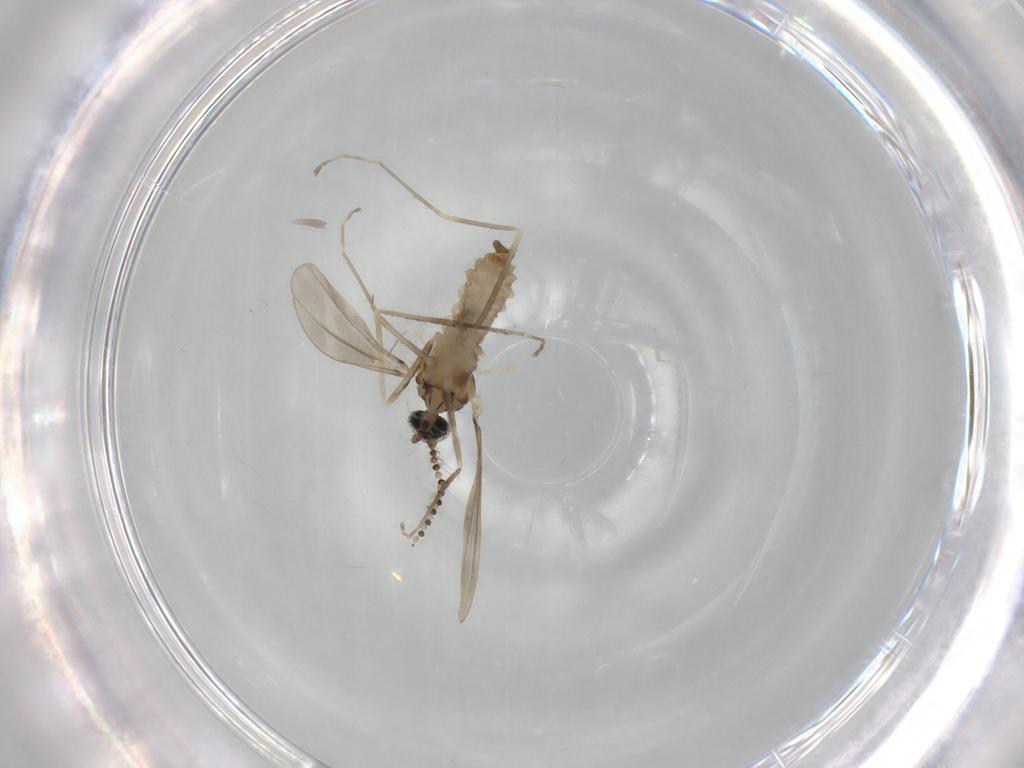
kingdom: Animalia
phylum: Arthropoda
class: Insecta
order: Diptera
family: Cecidomyiidae
